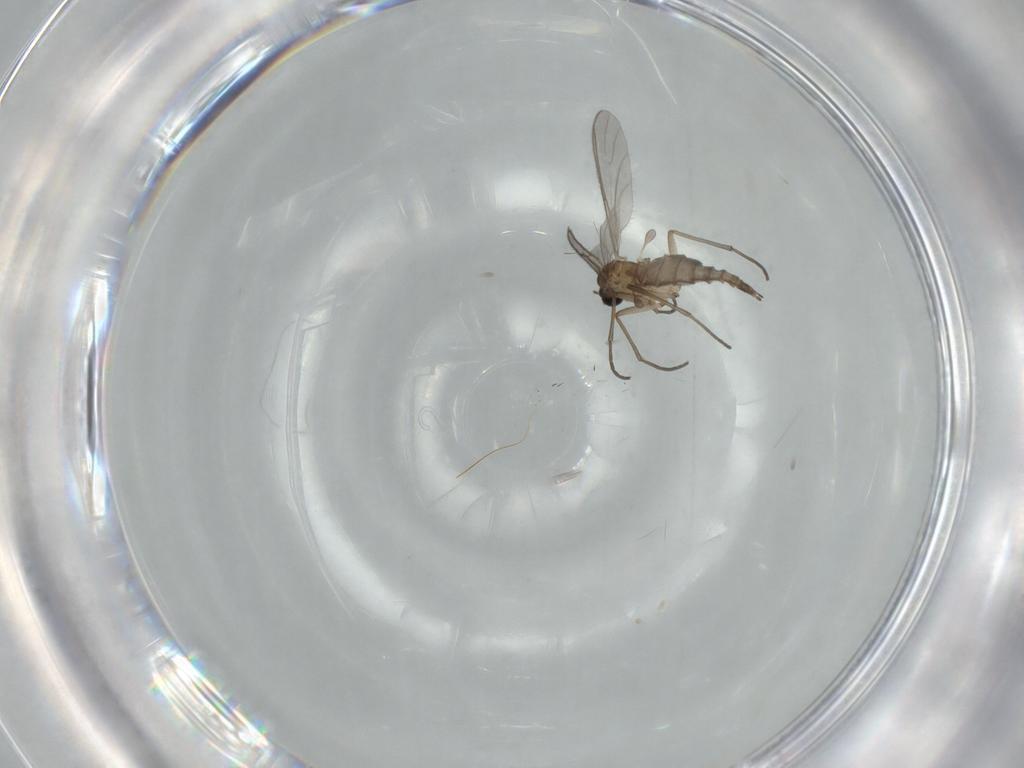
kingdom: Animalia
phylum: Arthropoda
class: Insecta
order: Diptera
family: Sciaridae
